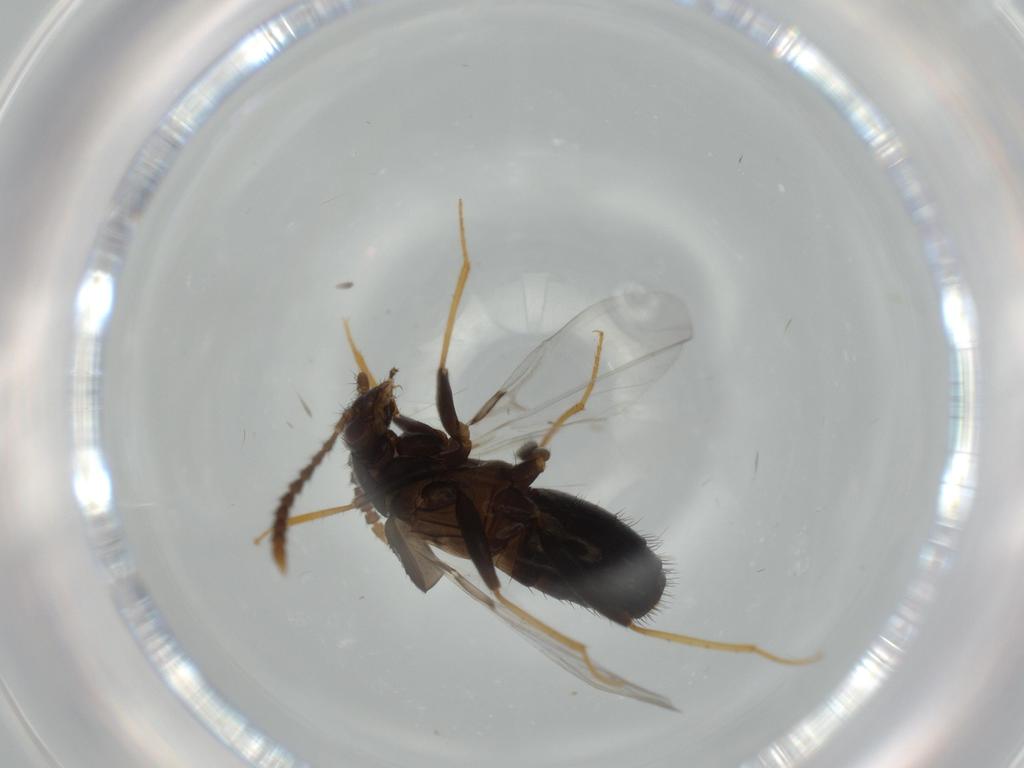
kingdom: Animalia
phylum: Arthropoda
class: Insecta
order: Coleoptera
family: Staphylinidae
